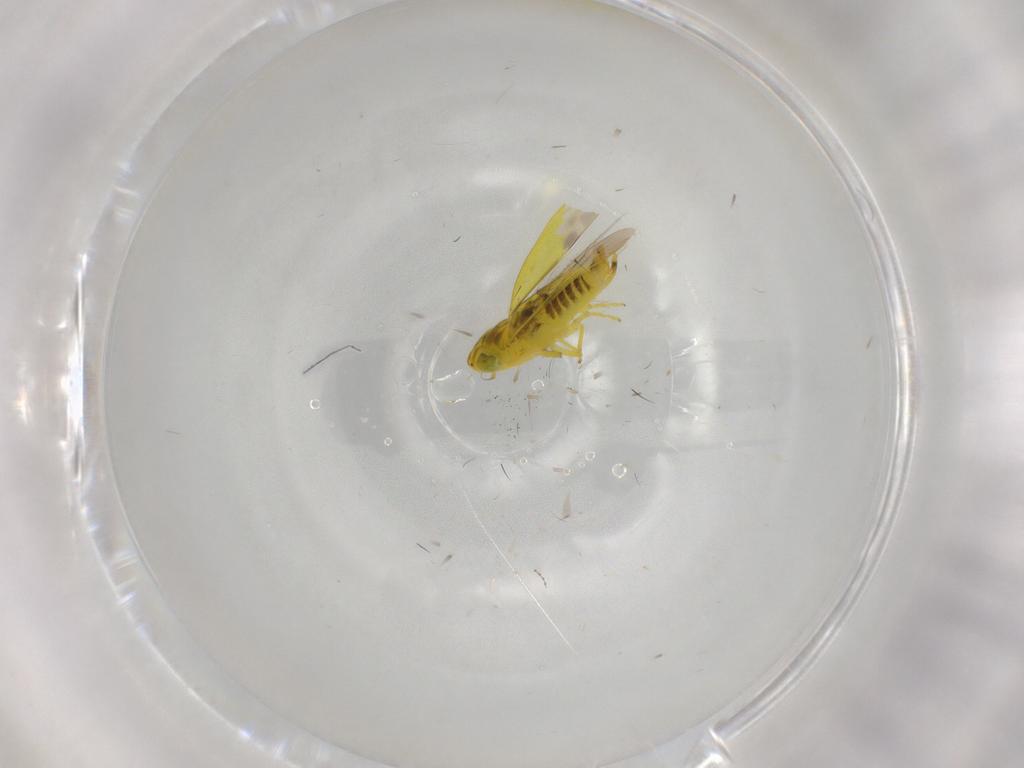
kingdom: Animalia
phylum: Arthropoda
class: Insecta
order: Hemiptera
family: Cicadellidae
